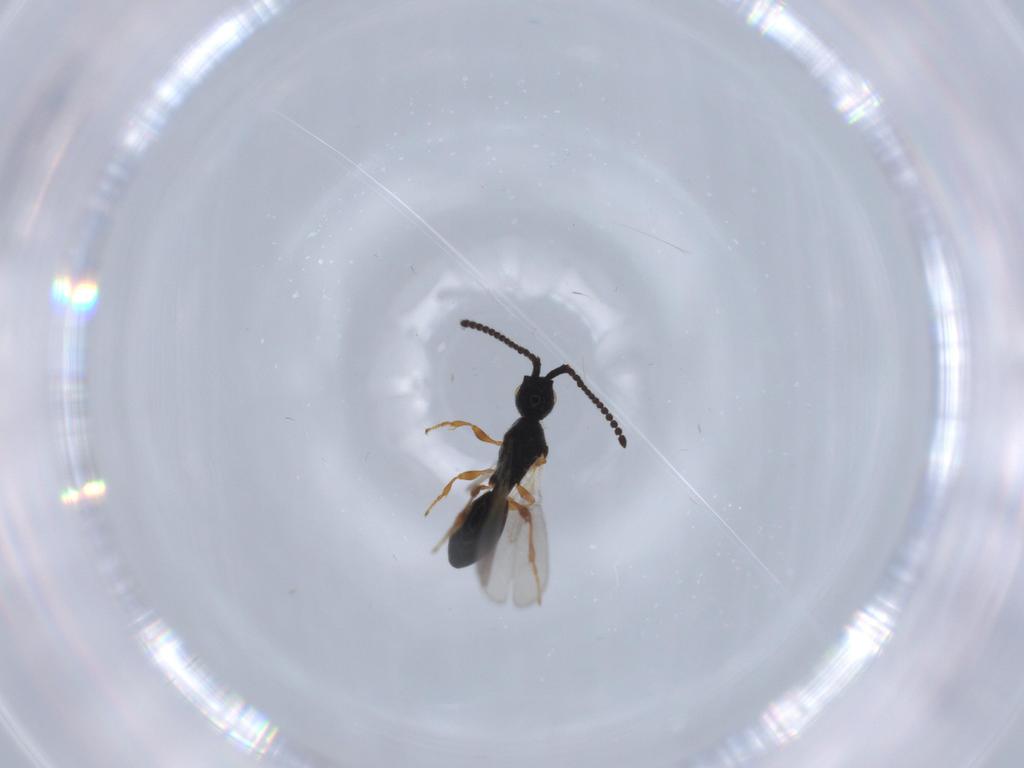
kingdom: Animalia
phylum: Arthropoda
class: Insecta
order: Hymenoptera
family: Diapriidae
